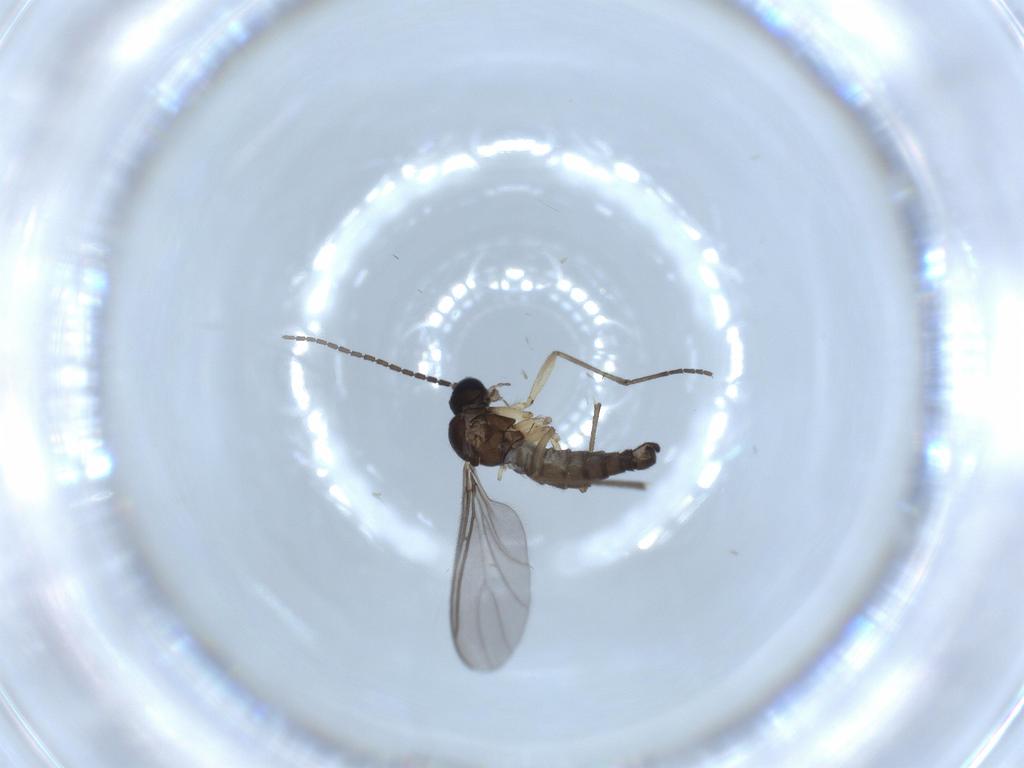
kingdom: Animalia
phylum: Arthropoda
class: Insecta
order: Diptera
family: Sciaridae
